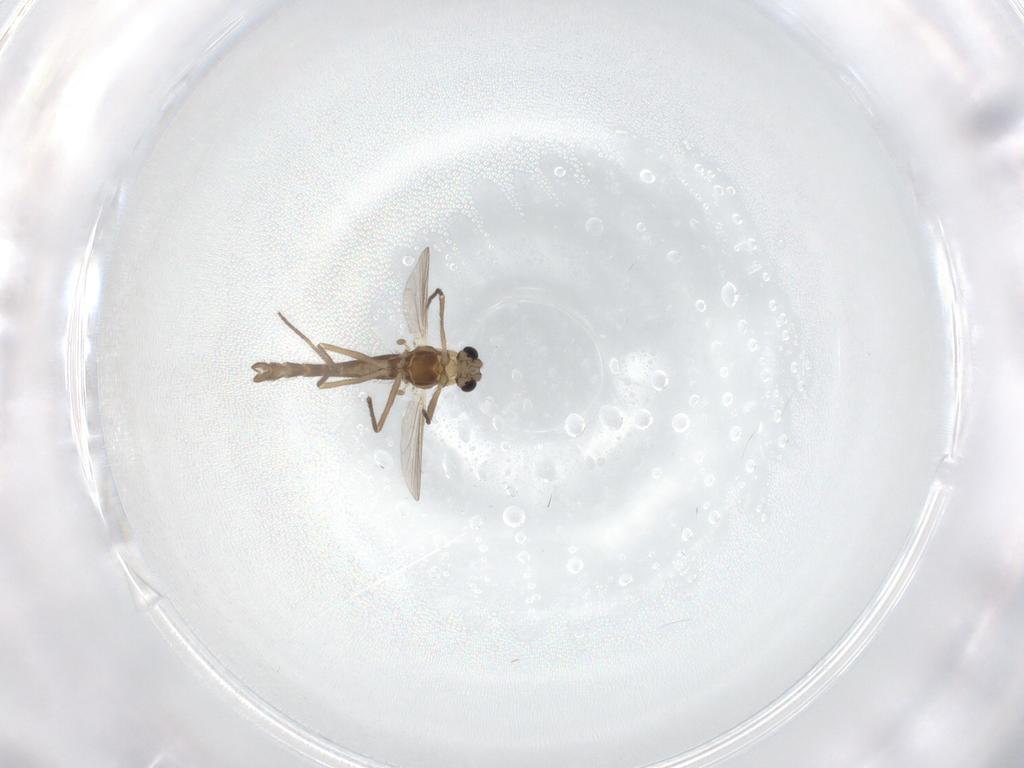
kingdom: Animalia
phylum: Arthropoda
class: Insecta
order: Diptera
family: Chironomidae
